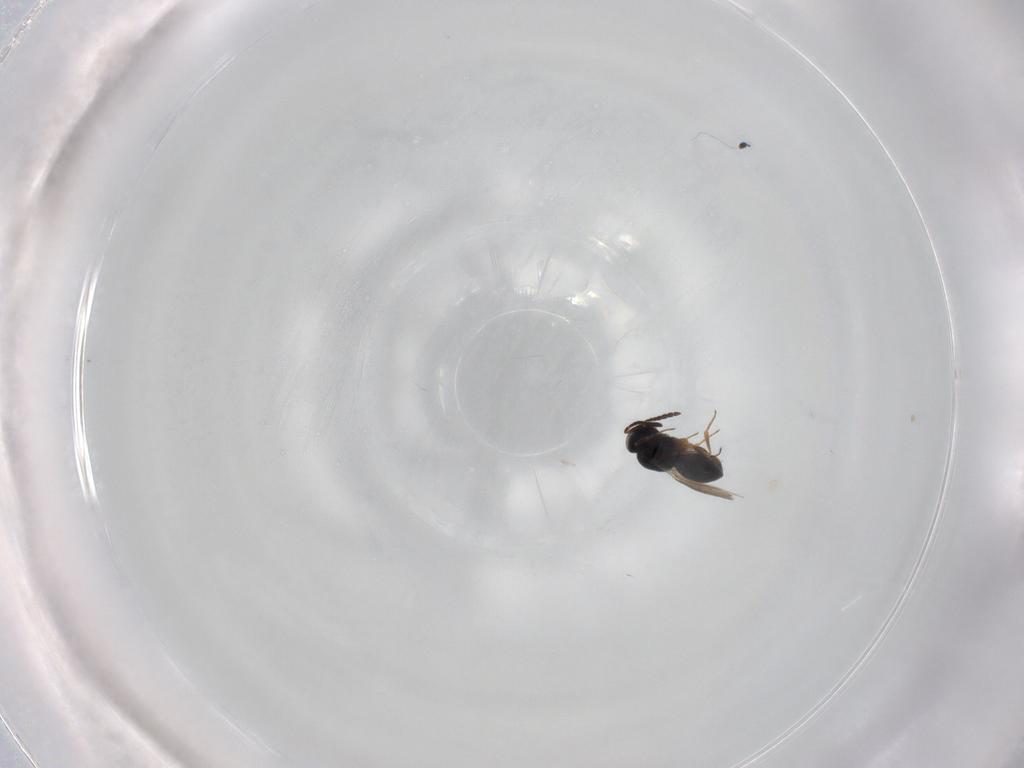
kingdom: Animalia
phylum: Arthropoda
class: Insecta
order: Hymenoptera
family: Scelionidae
